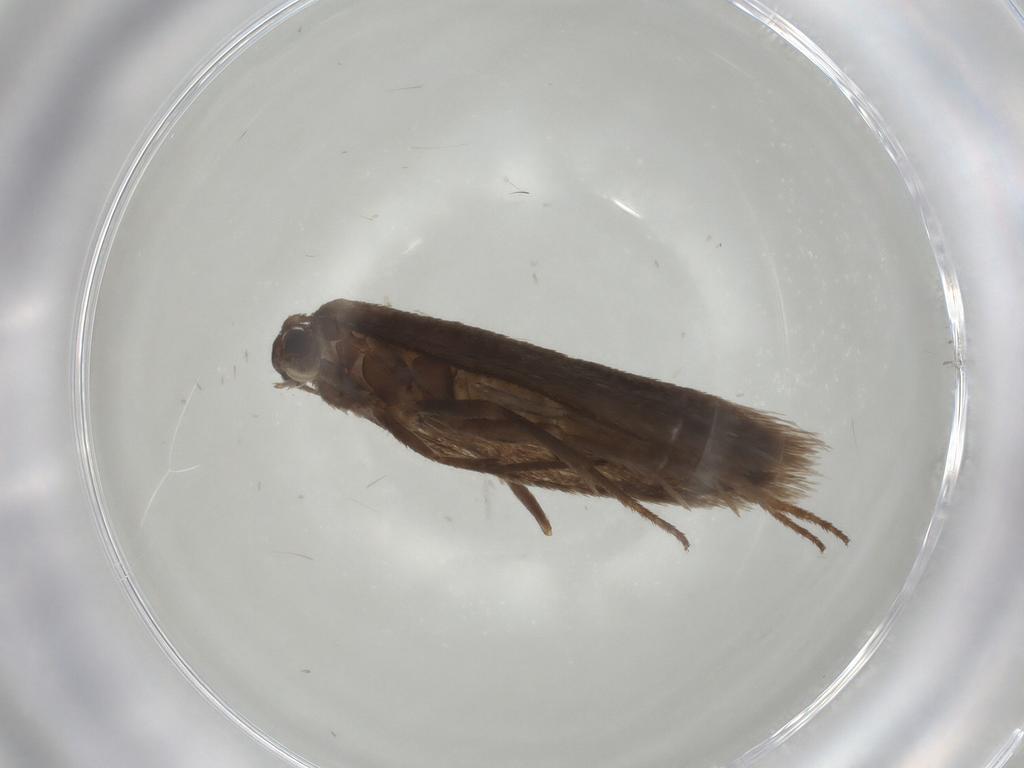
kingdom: Animalia
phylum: Arthropoda
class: Insecta
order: Lepidoptera
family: Limacodidae
